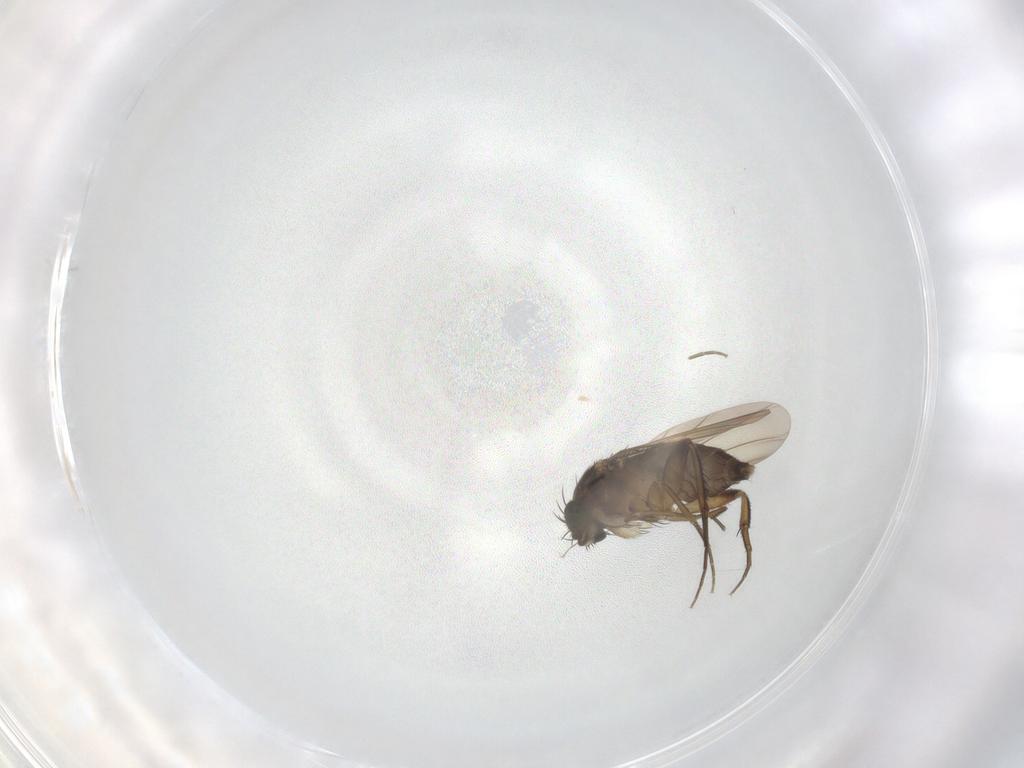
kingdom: Animalia
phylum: Arthropoda
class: Insecta
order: Diptera
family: Phoridae
